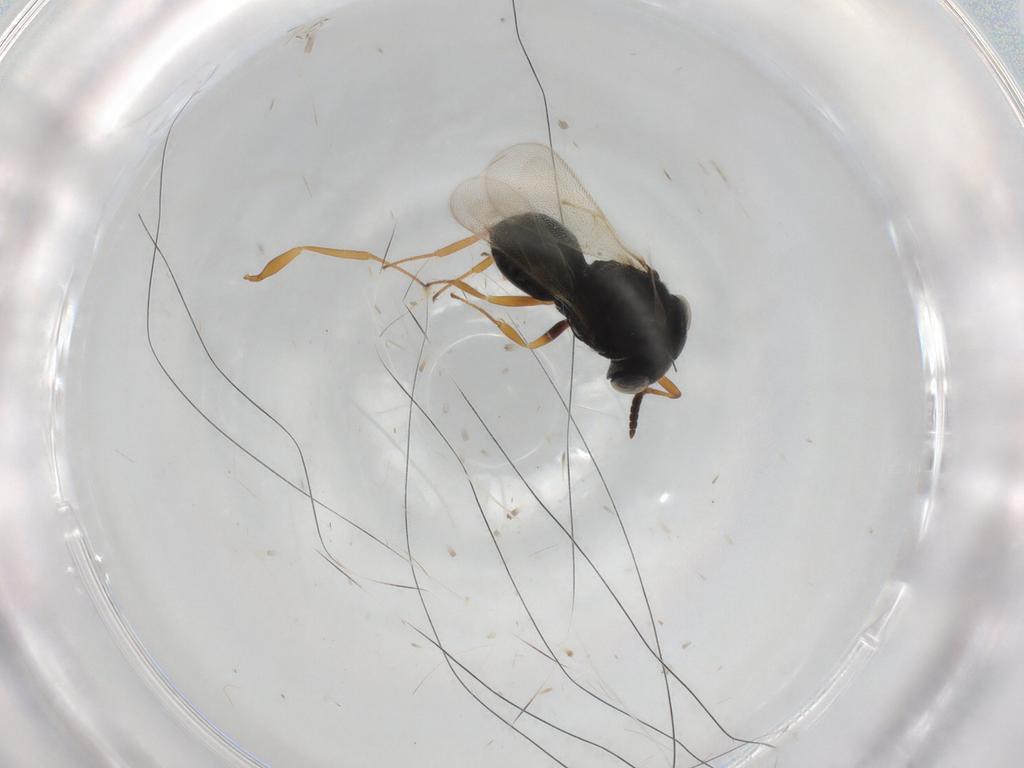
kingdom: Animalia
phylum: Arthropoda
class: Insecta
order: Hymenoptera
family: Scelionidae
